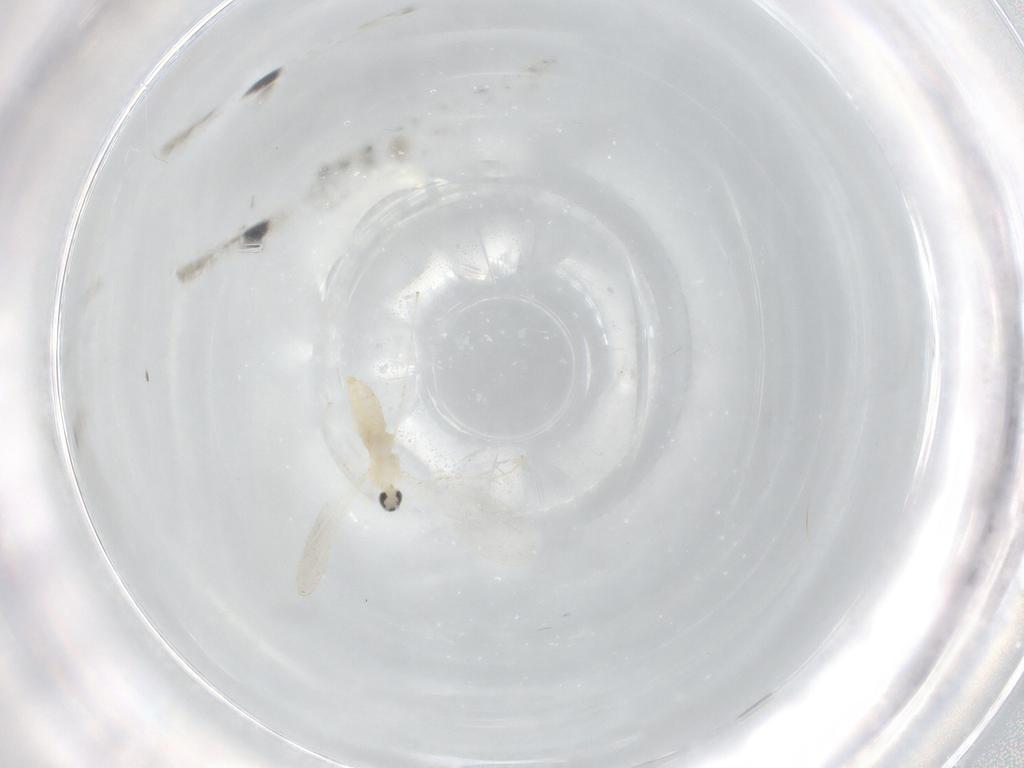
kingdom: Animalia
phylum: Arthropoda
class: Insecta
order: Diptera
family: Cecidomyiidae
